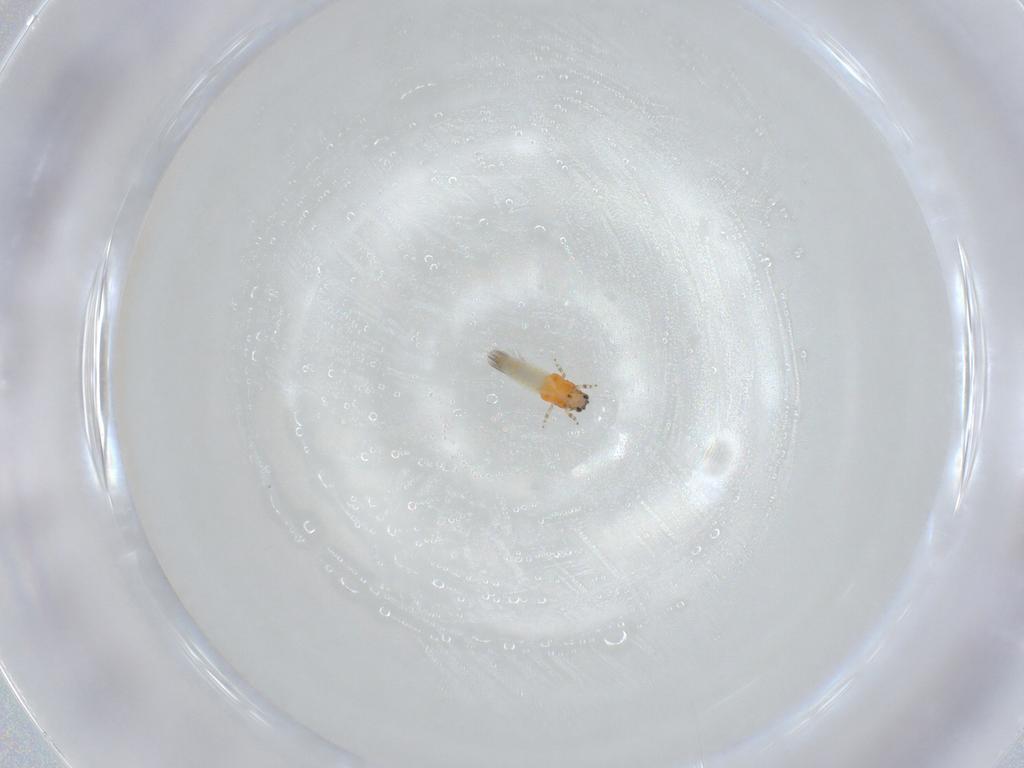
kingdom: Animalia
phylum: Arthropoda
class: Insecta
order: Thysanoptera
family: Thripidae
